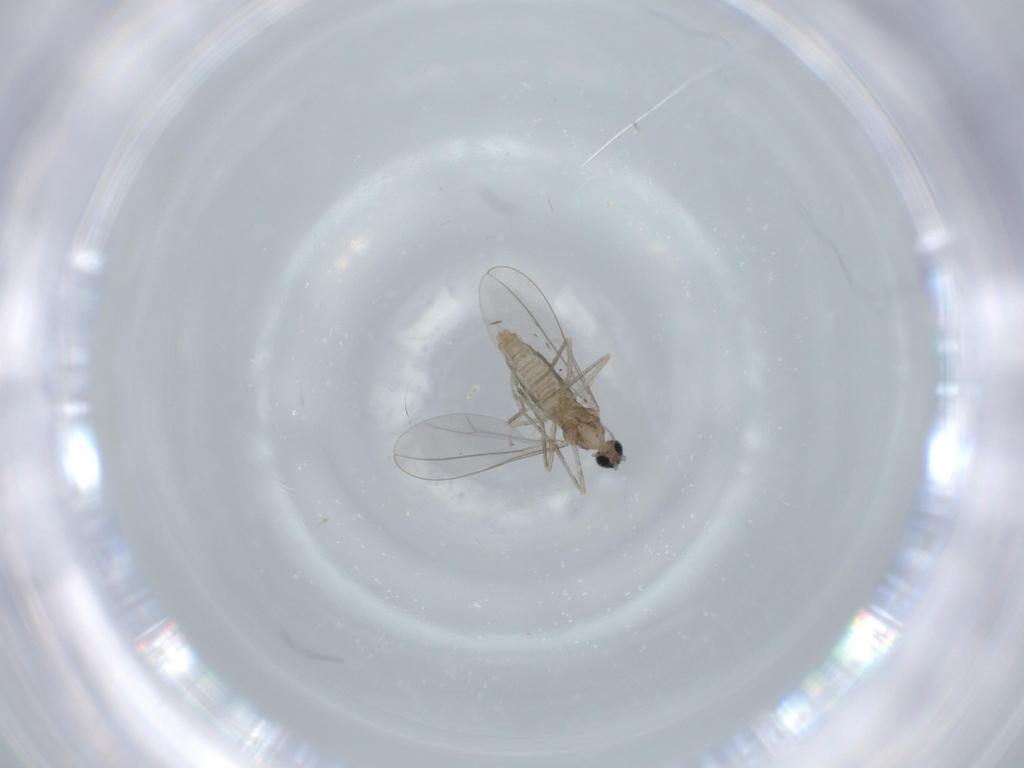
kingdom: Animalia
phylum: Arthropoda
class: Insecta
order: Diptera
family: Cecidomyiidae
